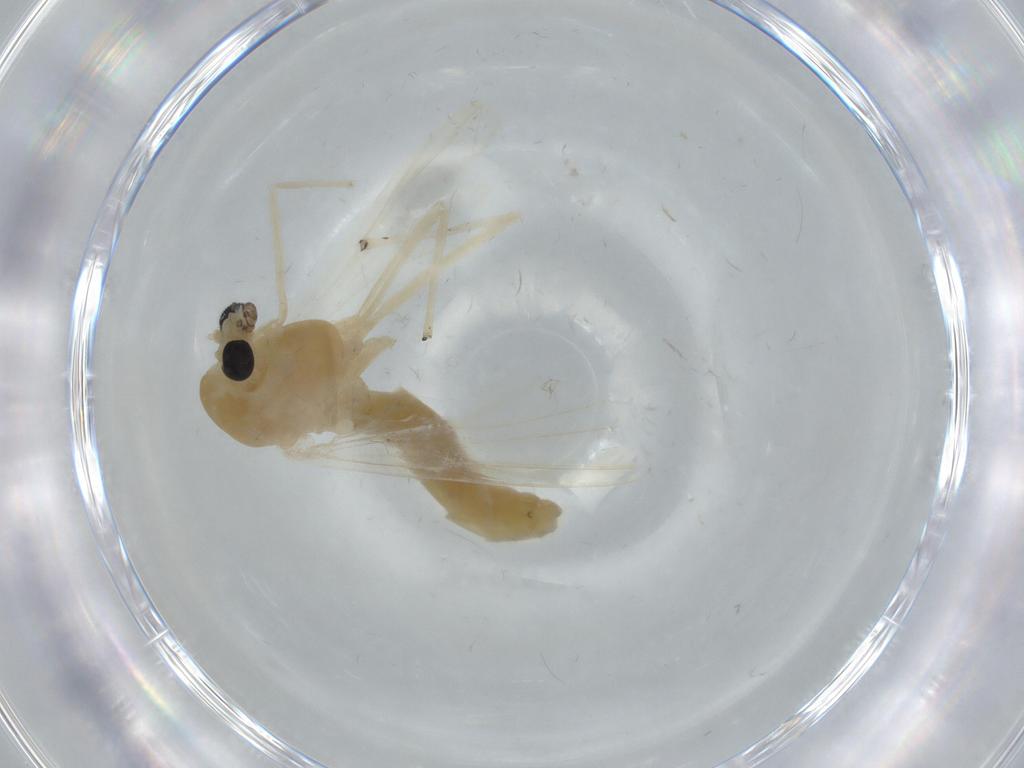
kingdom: Animalia
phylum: Arthropoda
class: Insecta
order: Diptera
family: Chironomidae
